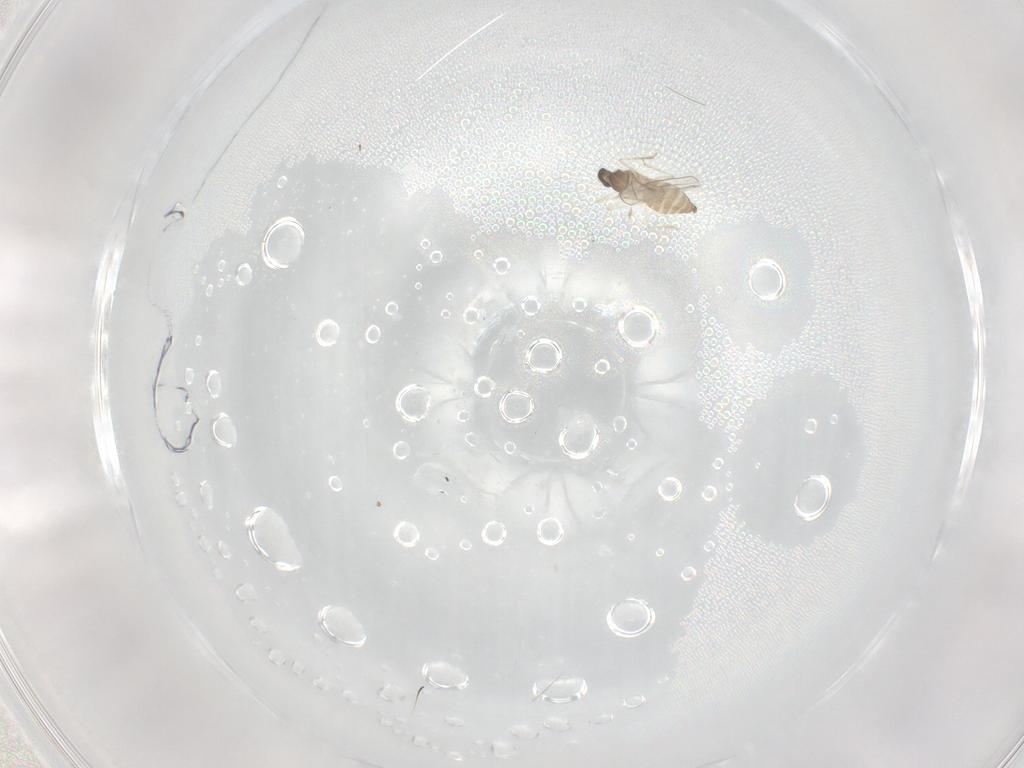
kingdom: Animalia
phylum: Arthropoda
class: Insecta
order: Diptera
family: Cecidomyiidae
